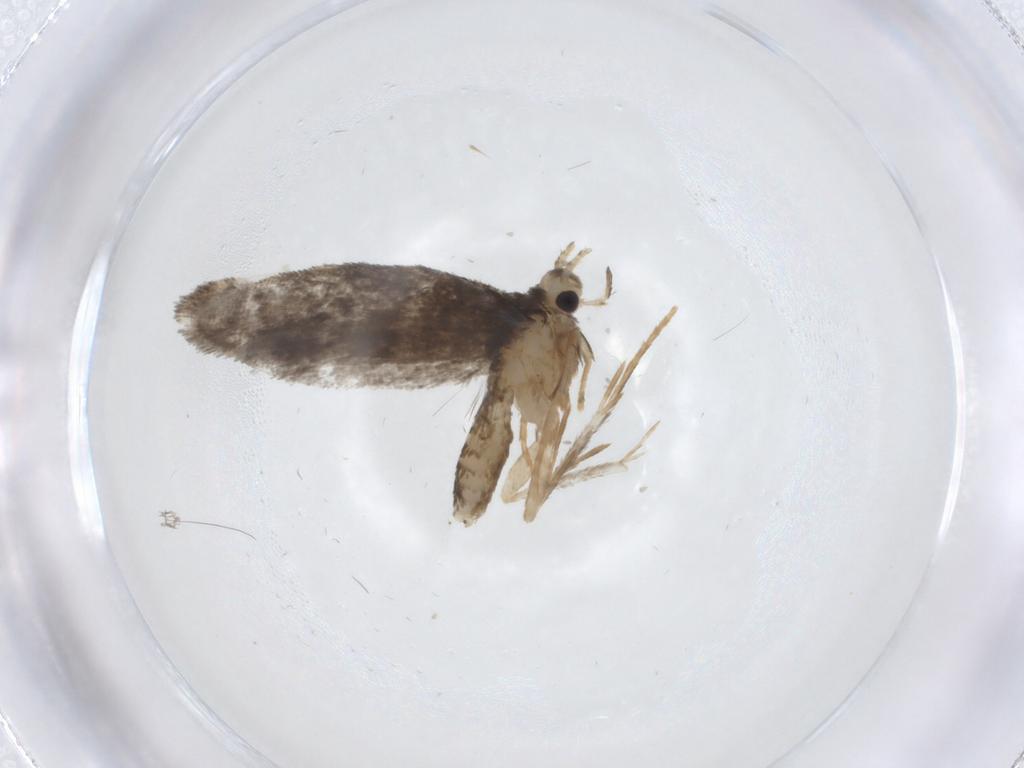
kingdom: Animalia
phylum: Arthropoda
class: Insecta
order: Lepidoptera
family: Psychidae
